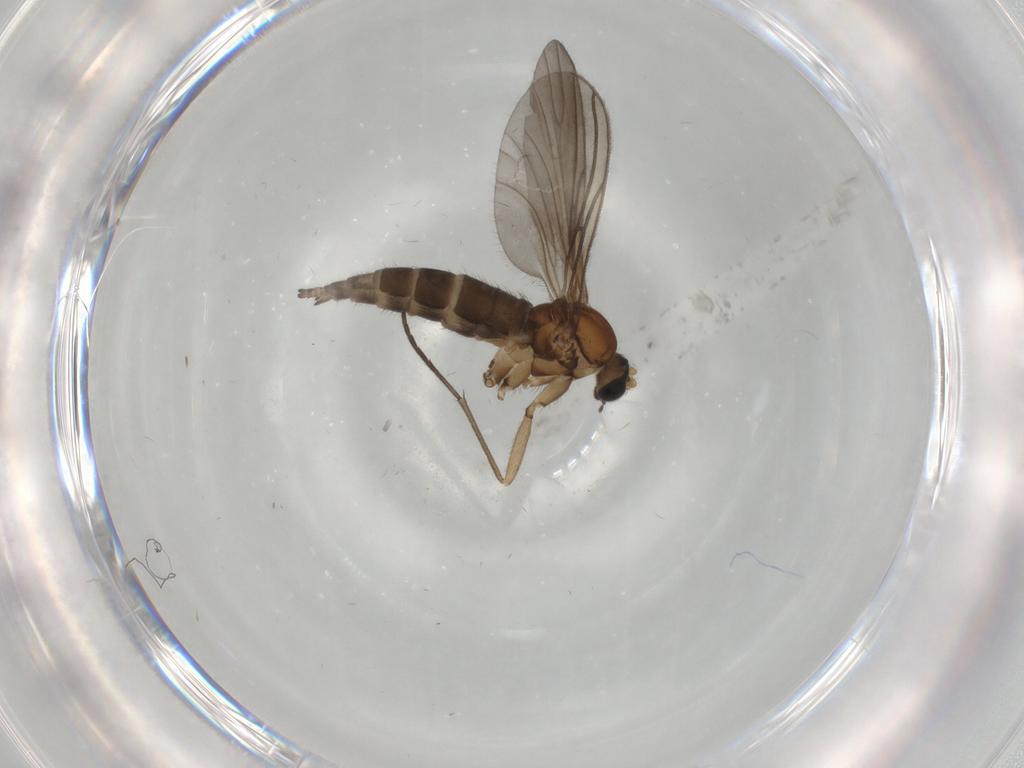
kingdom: Animalia
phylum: Arthropoda
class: Insecta
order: Diptera
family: Sciaridae
